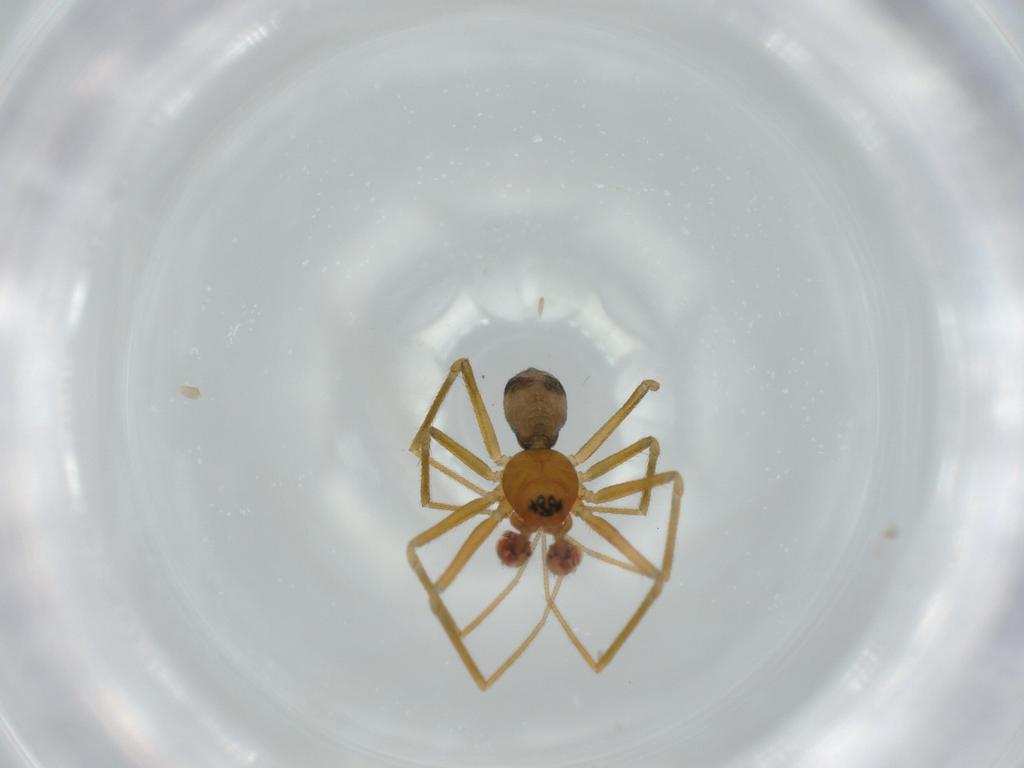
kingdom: Animalia
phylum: Arthropoda
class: Arachnida
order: Araneae
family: Linyphiidae
